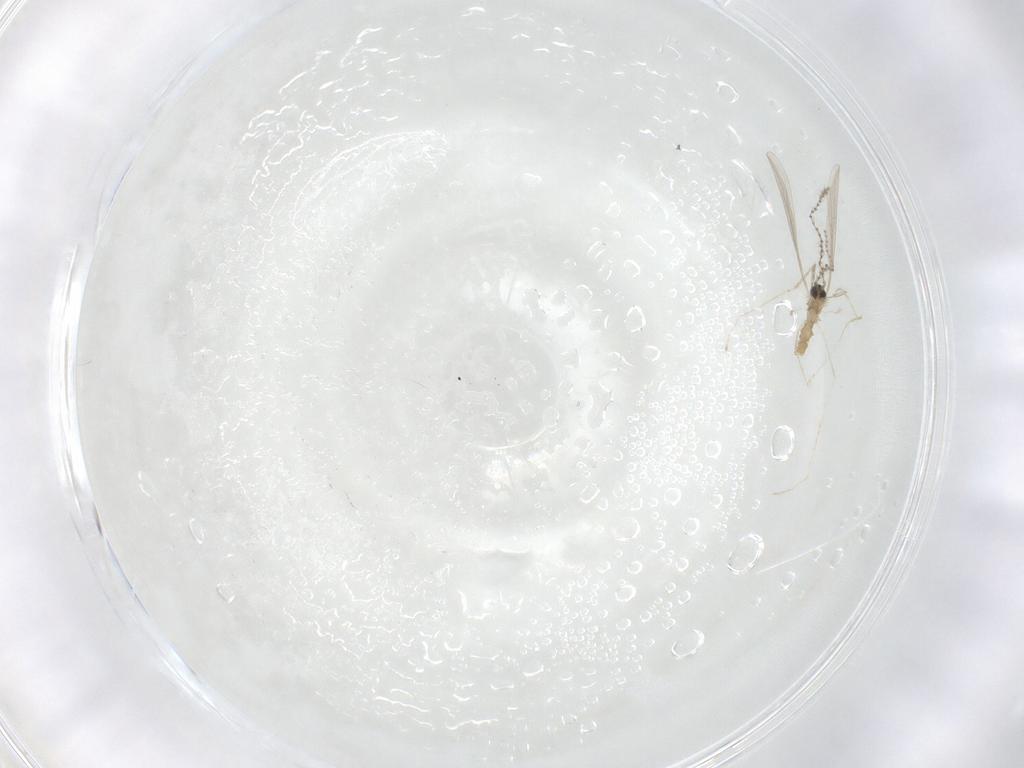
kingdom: Animalia
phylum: Arthropoda
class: Insecta
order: Diptera
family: Cecidomyiidae
